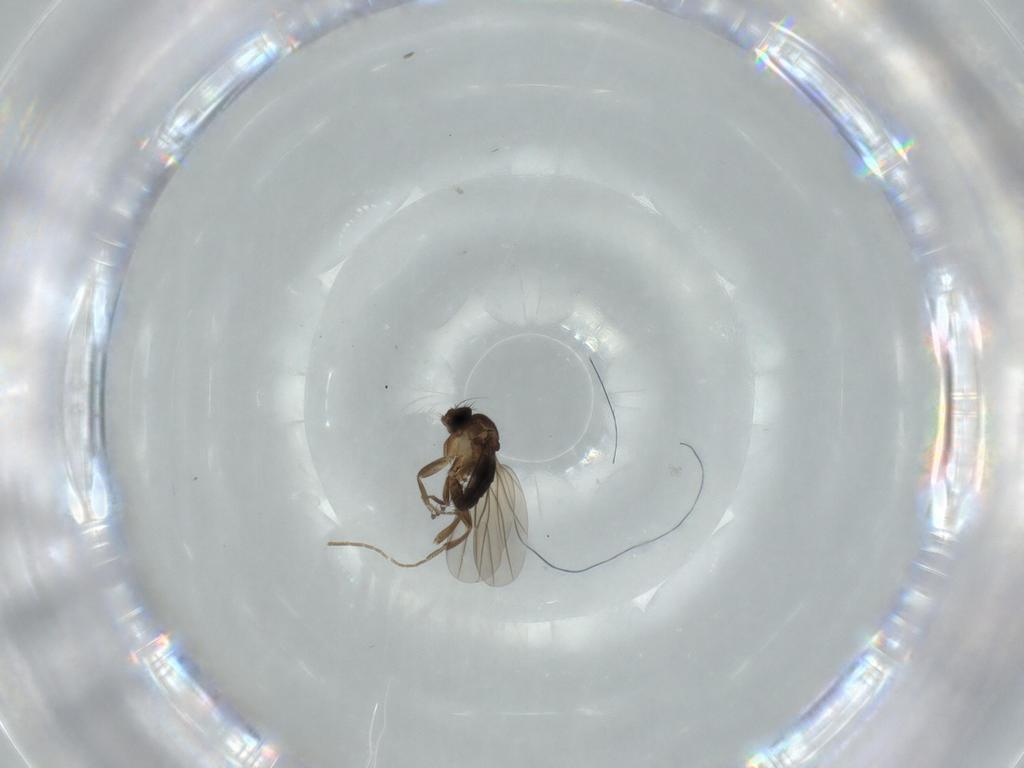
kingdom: Animalia
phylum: Arthropoda
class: Insecta
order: Diptera
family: Phoridae
